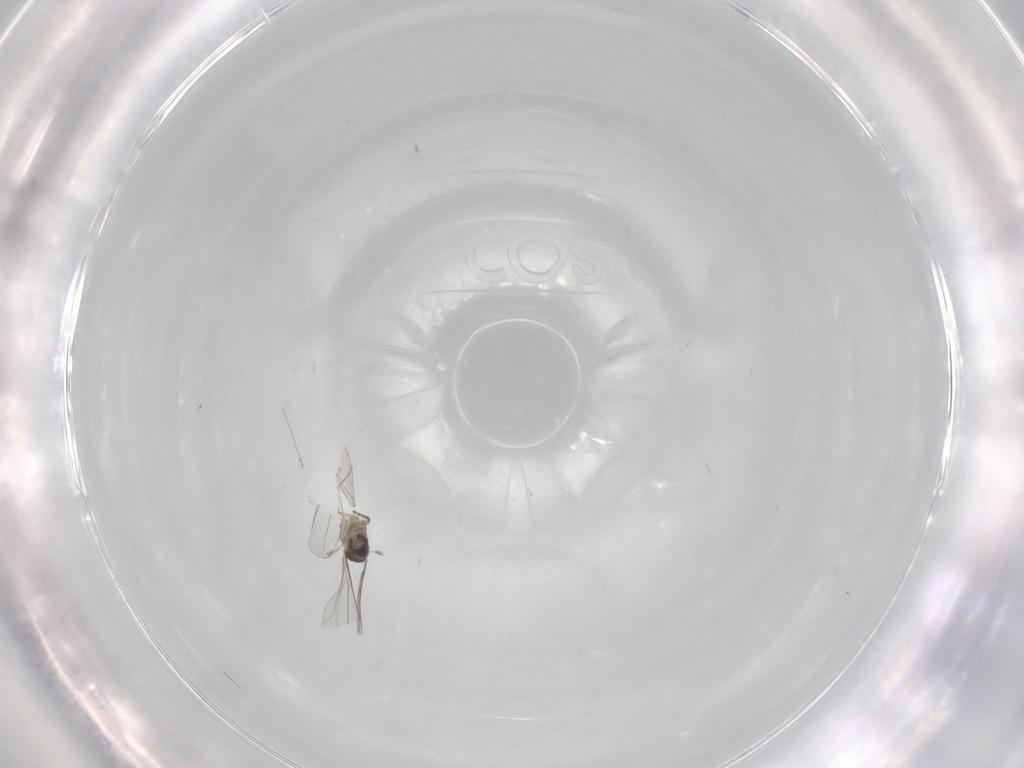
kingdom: Animalia
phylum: Arthropoda
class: Insecta
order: Diptera
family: Cecidomyiidae
